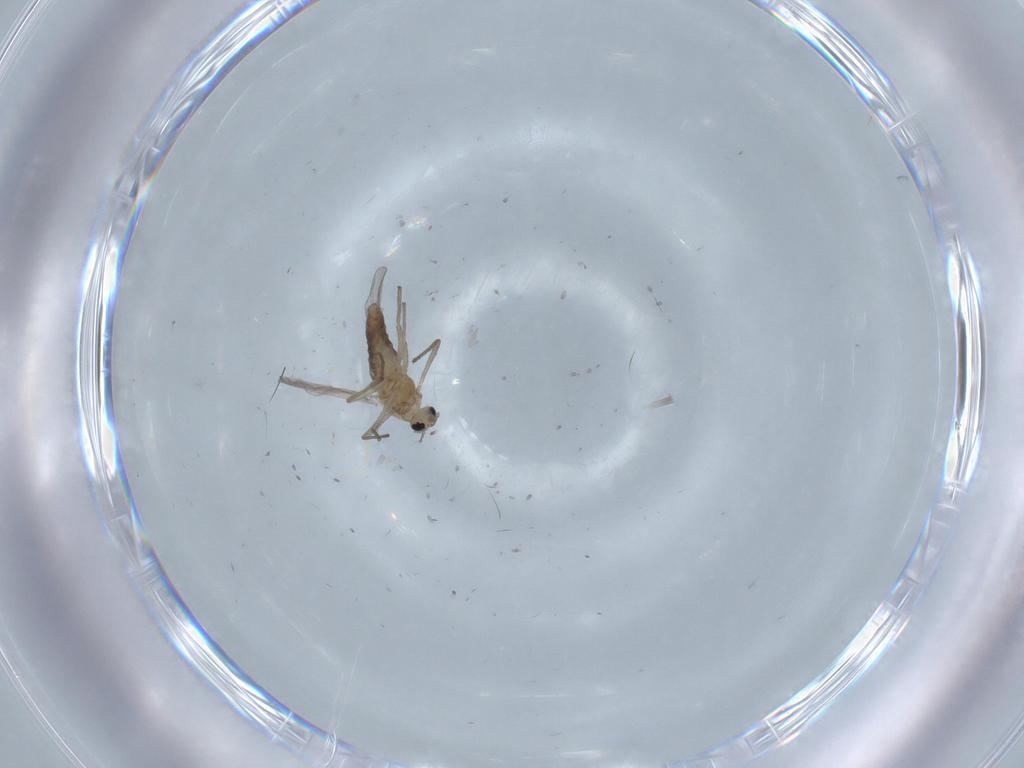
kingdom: Animalia
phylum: Arthropoda
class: Insecta
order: Diptera
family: Chironomidae
